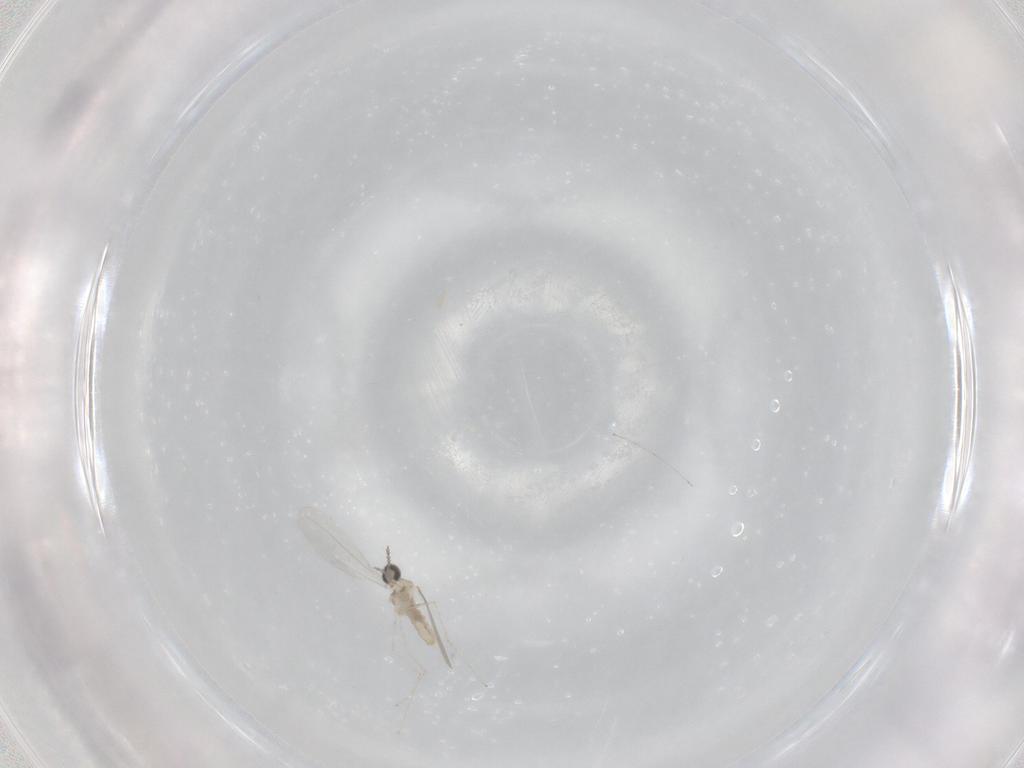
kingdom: Animalia
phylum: Arthropoda
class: Insecta
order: Diptera
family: Cecidomyiidae
